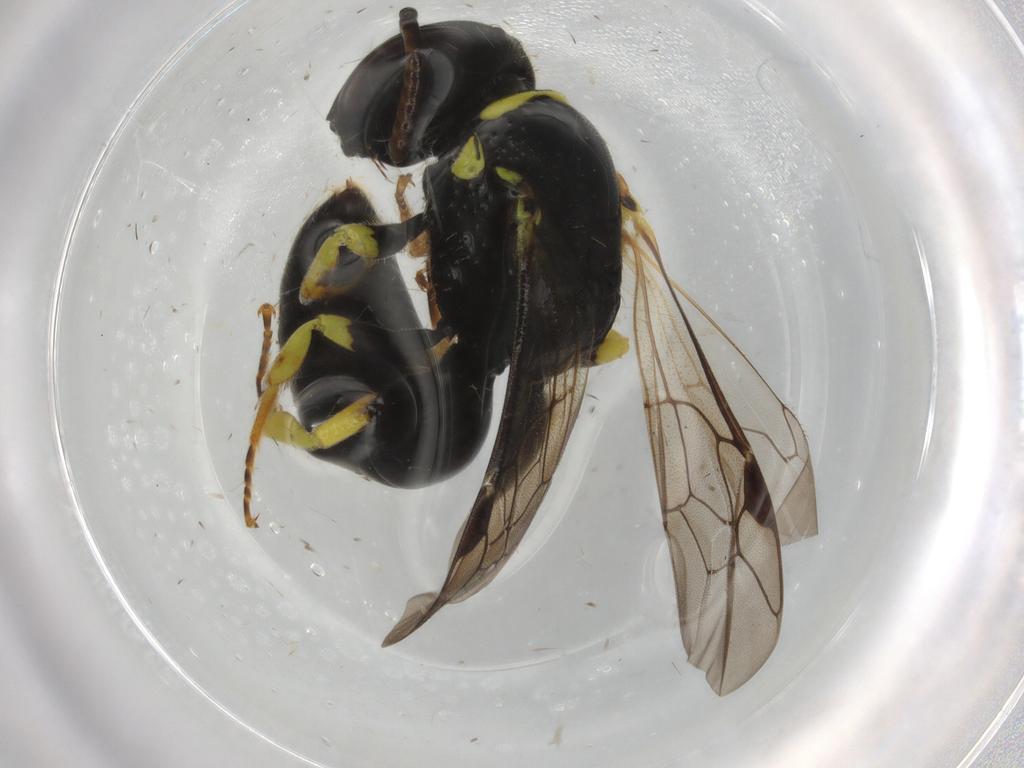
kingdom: Animalia
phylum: Arthropoda
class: Insecta
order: Hymenoptera
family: Colletidae
